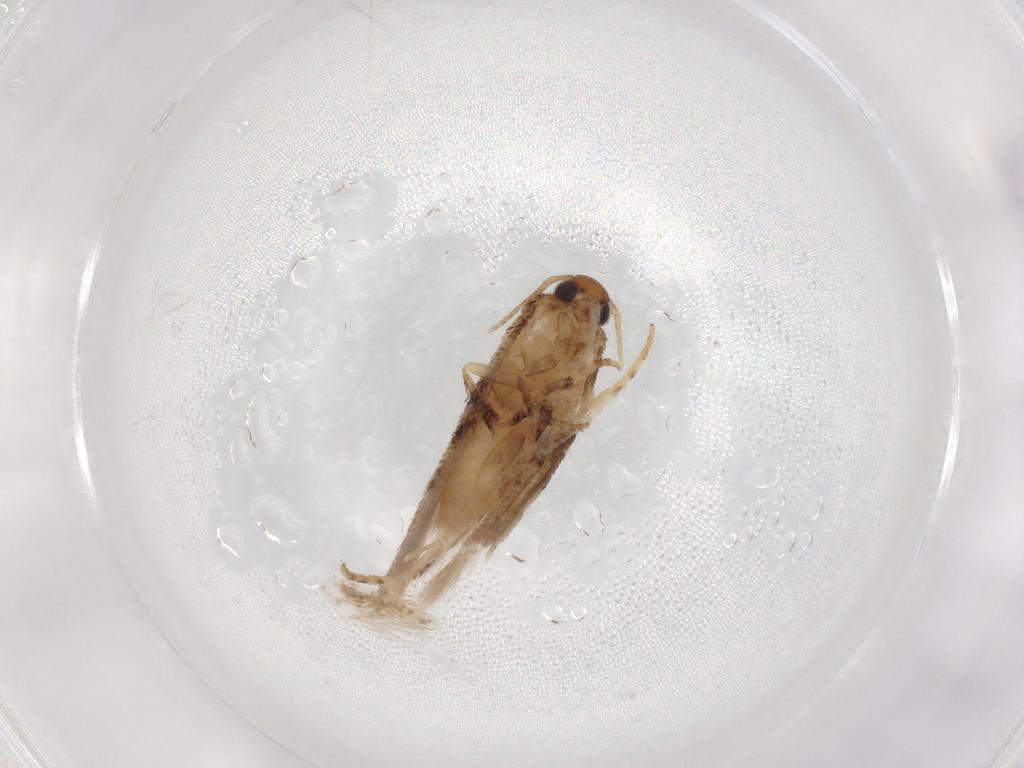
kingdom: Animalia
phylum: Arthropoda
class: Insecta
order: Lepidoptera
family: Gelechiidae
